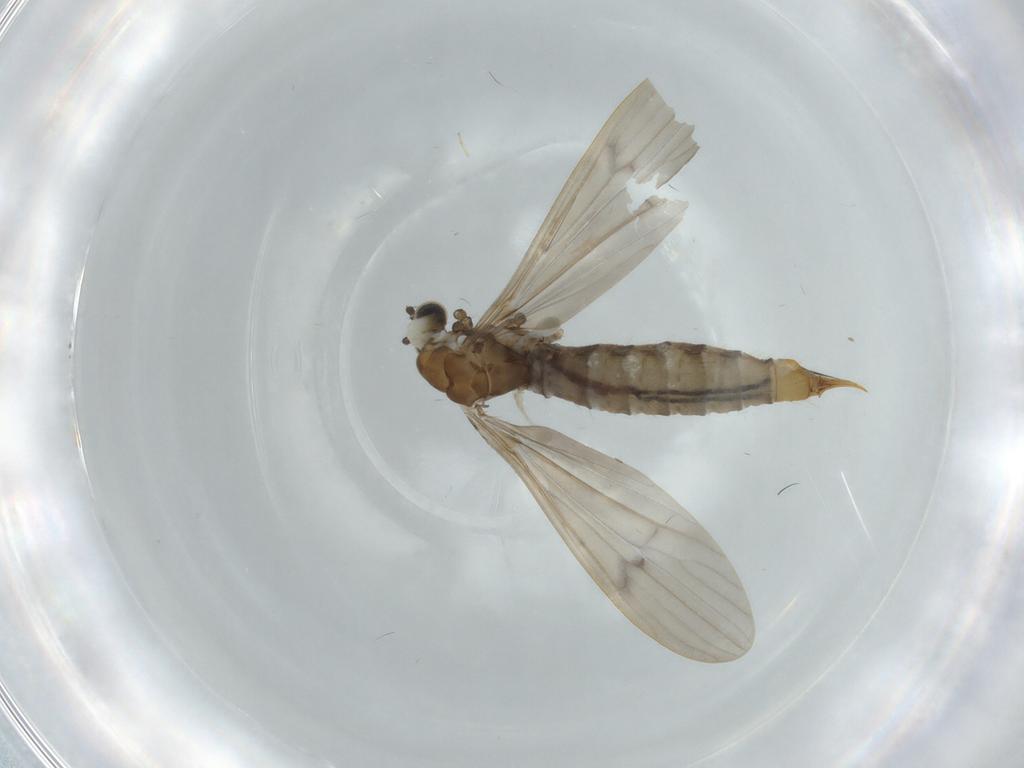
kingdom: Animalia
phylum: Arthropoda
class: Insecta
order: Diptera
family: Limoniidae
